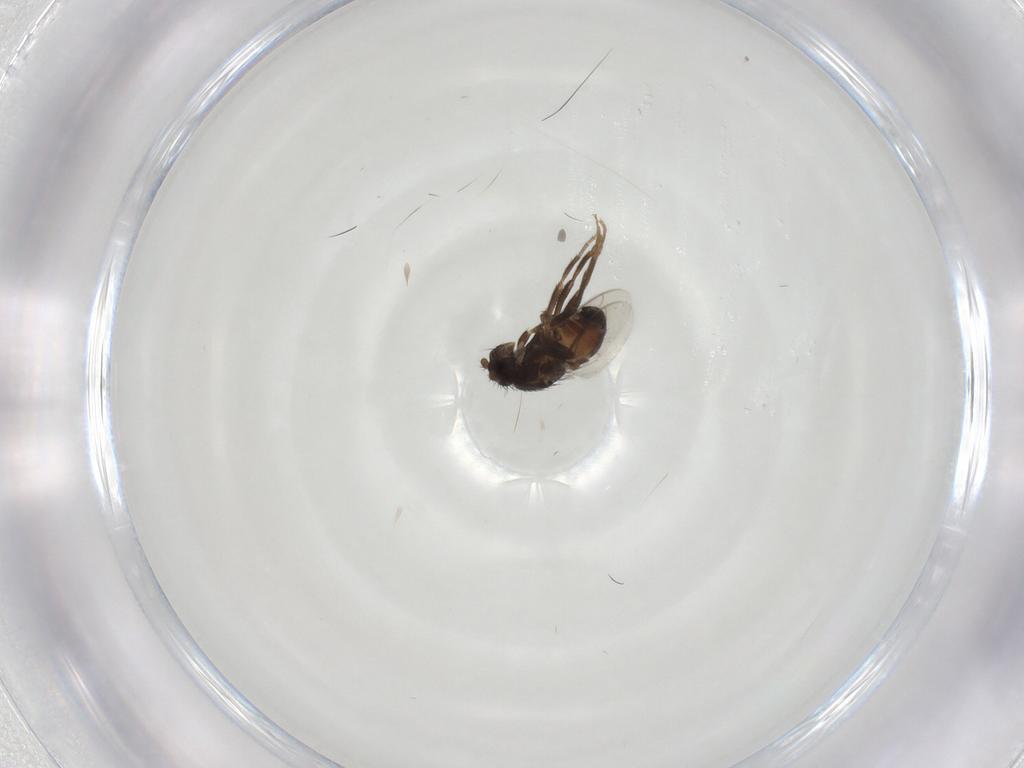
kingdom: Animalia
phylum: Arthropoda
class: Insecta
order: Diptera
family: Sphaeroceridae
